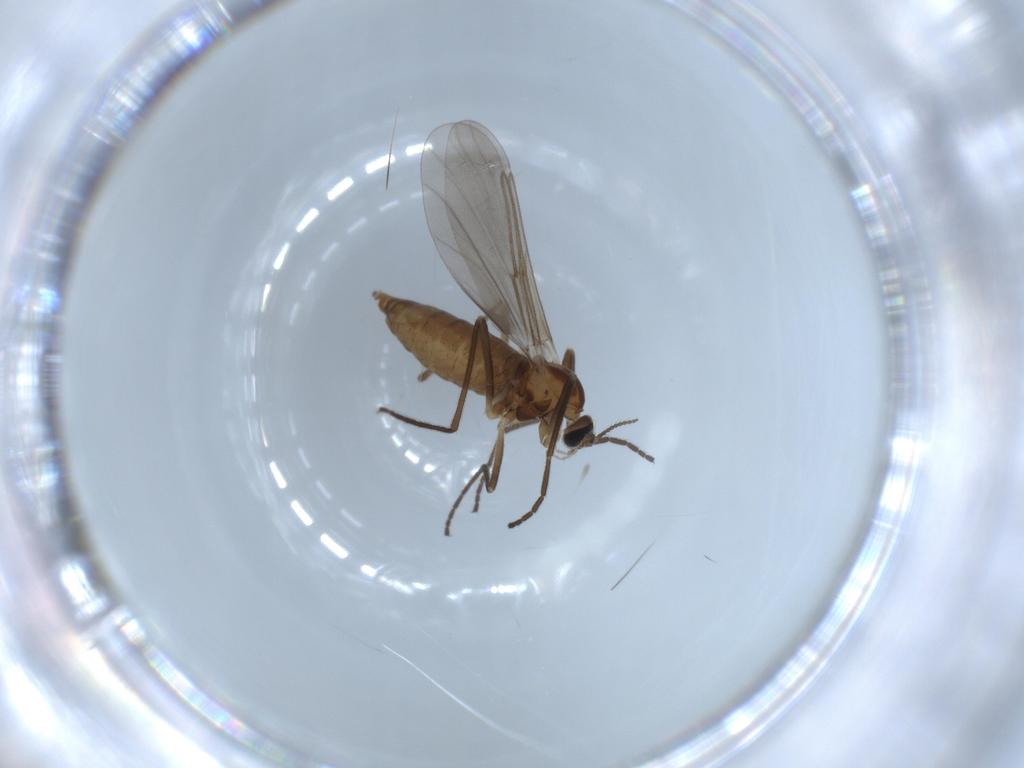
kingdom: Animalia
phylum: Arthropoda
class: Insecta
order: Diptera
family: Cecidomyiidae
